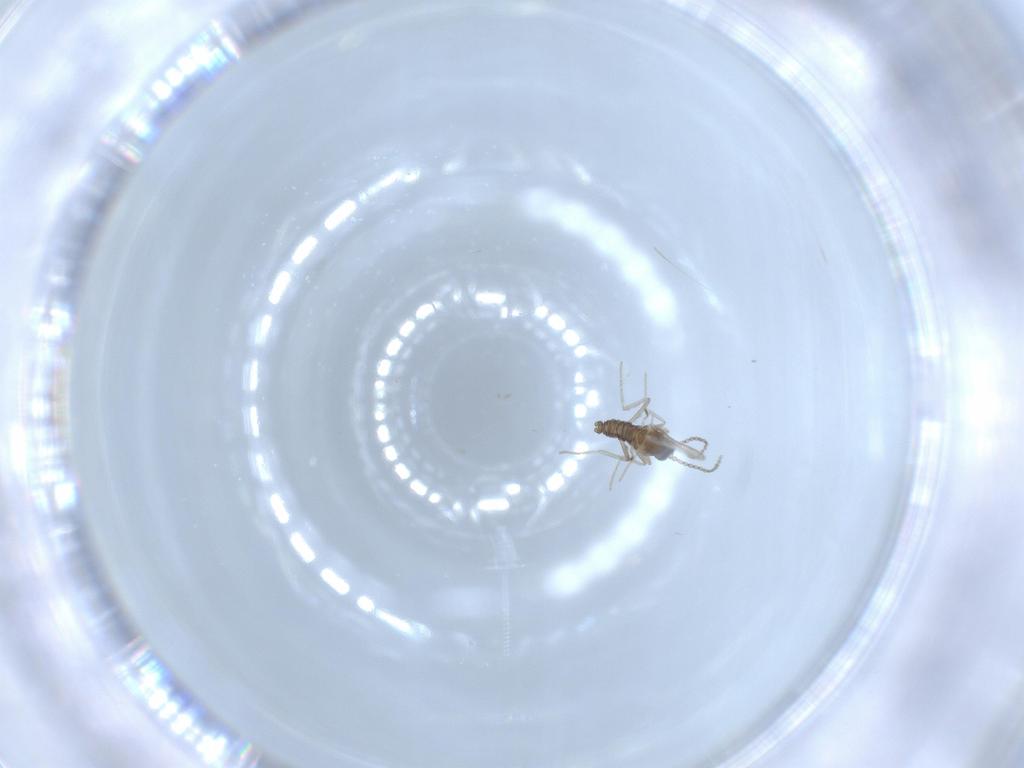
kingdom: Animalia
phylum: Arthropoda
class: Insecta
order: Diptera
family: Cecidomyiidae
